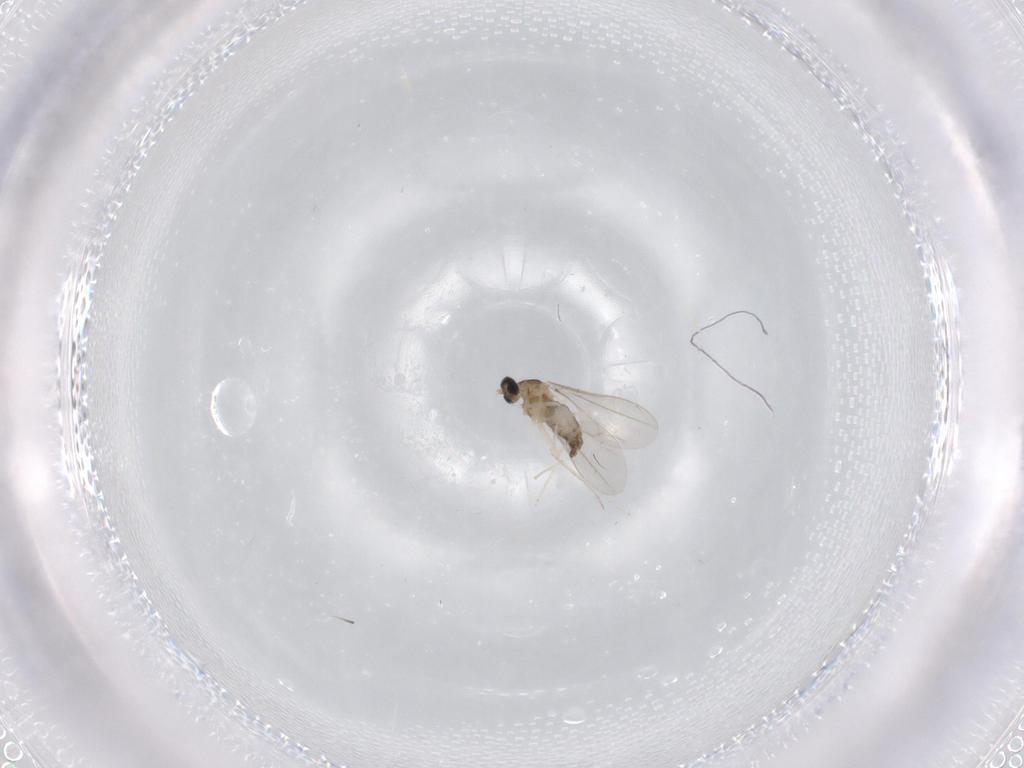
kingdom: Animalia
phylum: Arthropoda
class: Insecta
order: Diptera
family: Cecidomyiidae
